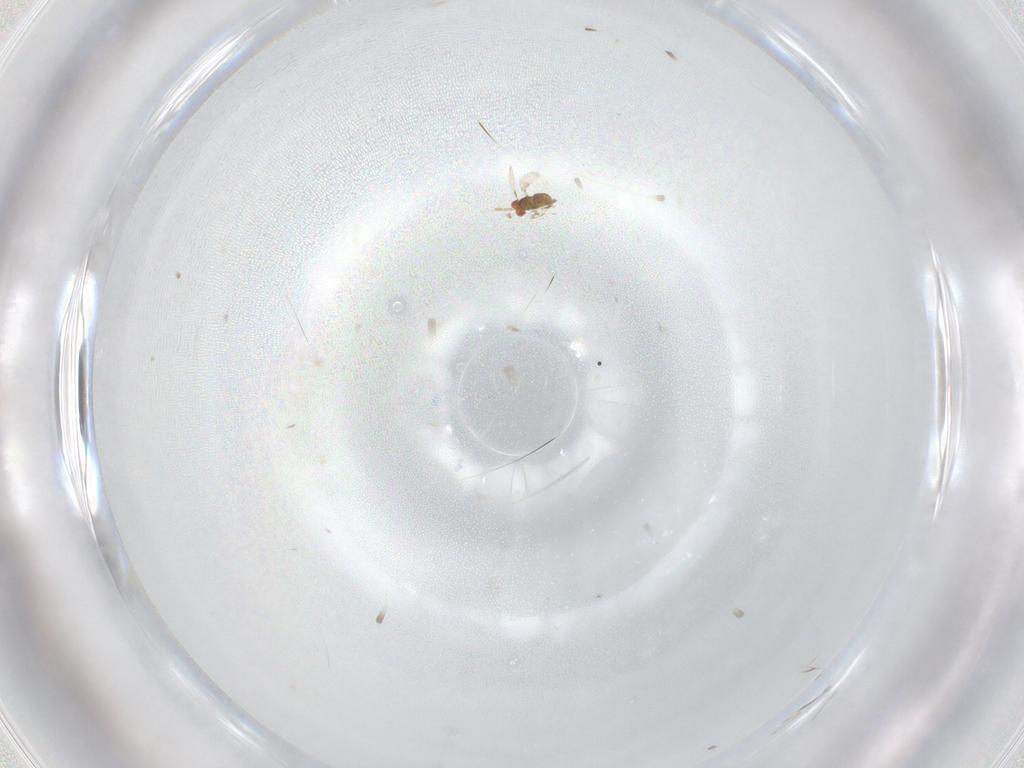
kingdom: Animalia
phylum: Arthropoda
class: Insecta
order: Hymenoptera
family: Trichogrammatidae
